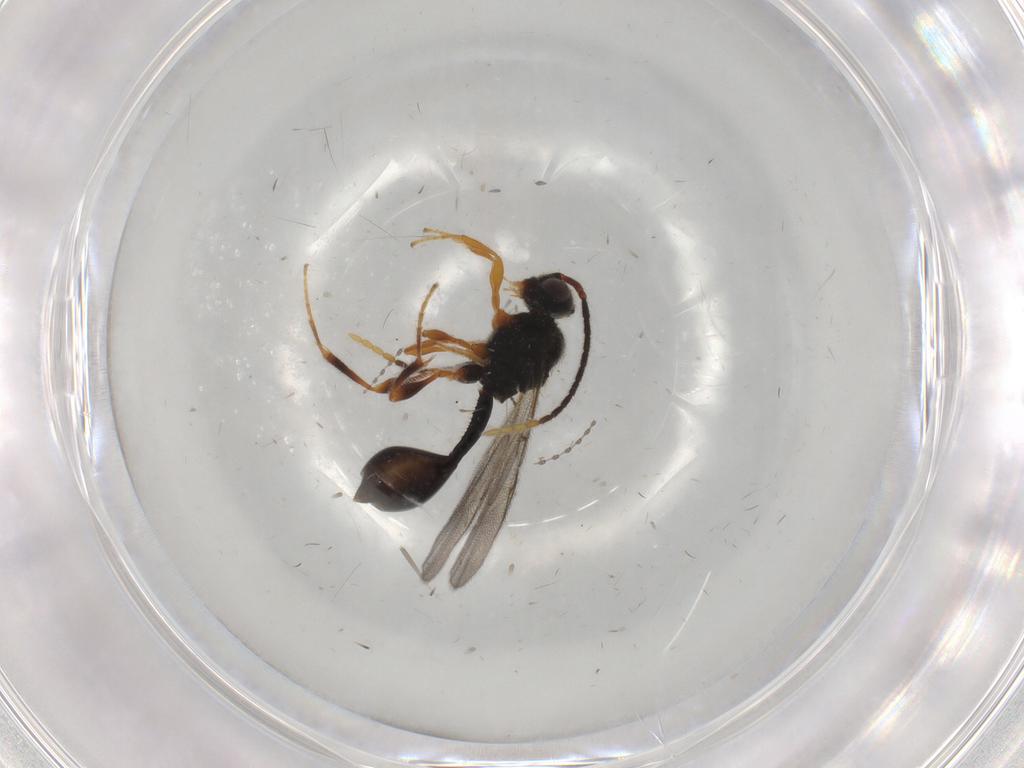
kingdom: Animalia
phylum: Arthropoda
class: Insecta
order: Hymenoptera
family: Diapriidae
